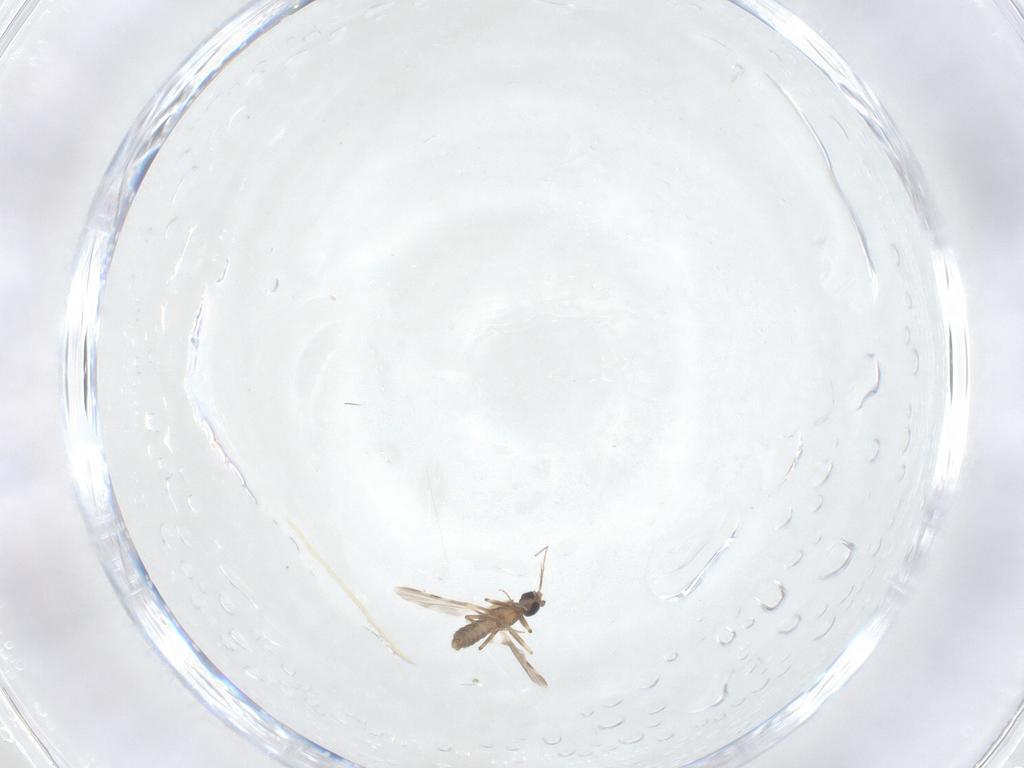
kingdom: Animalia
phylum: Arthropoda
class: Insecta
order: Diptera
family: Ceratopogonidae
